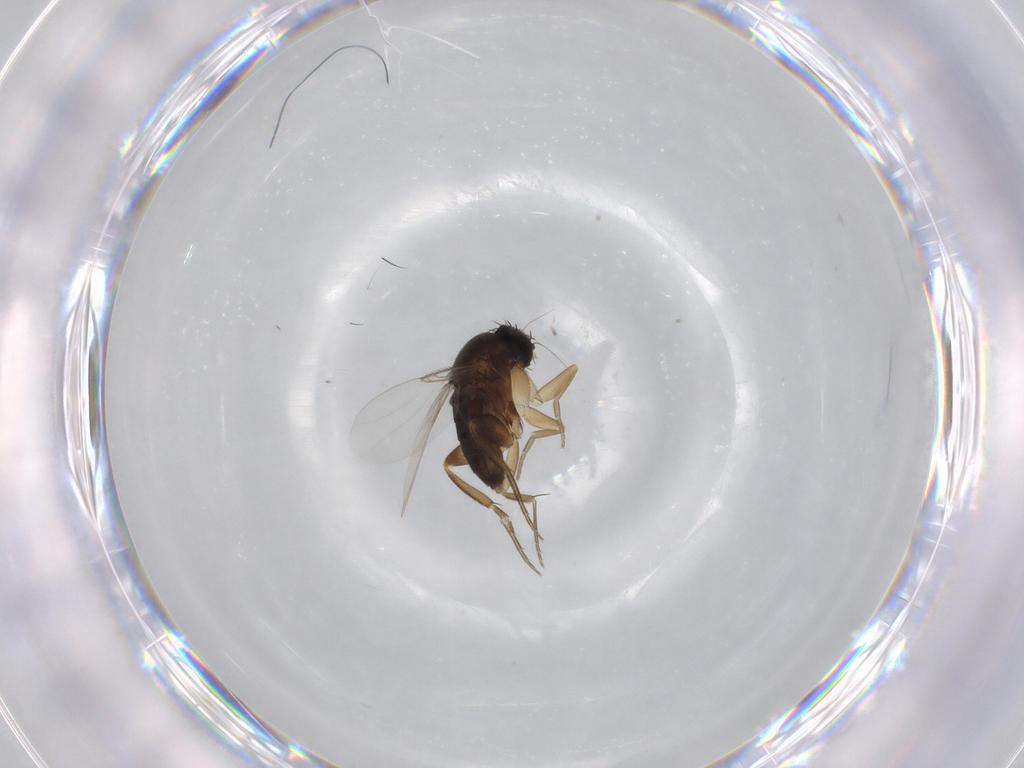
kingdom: Animalia
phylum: Arthropoda
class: Insecta
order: Diptera
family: Phoridae
